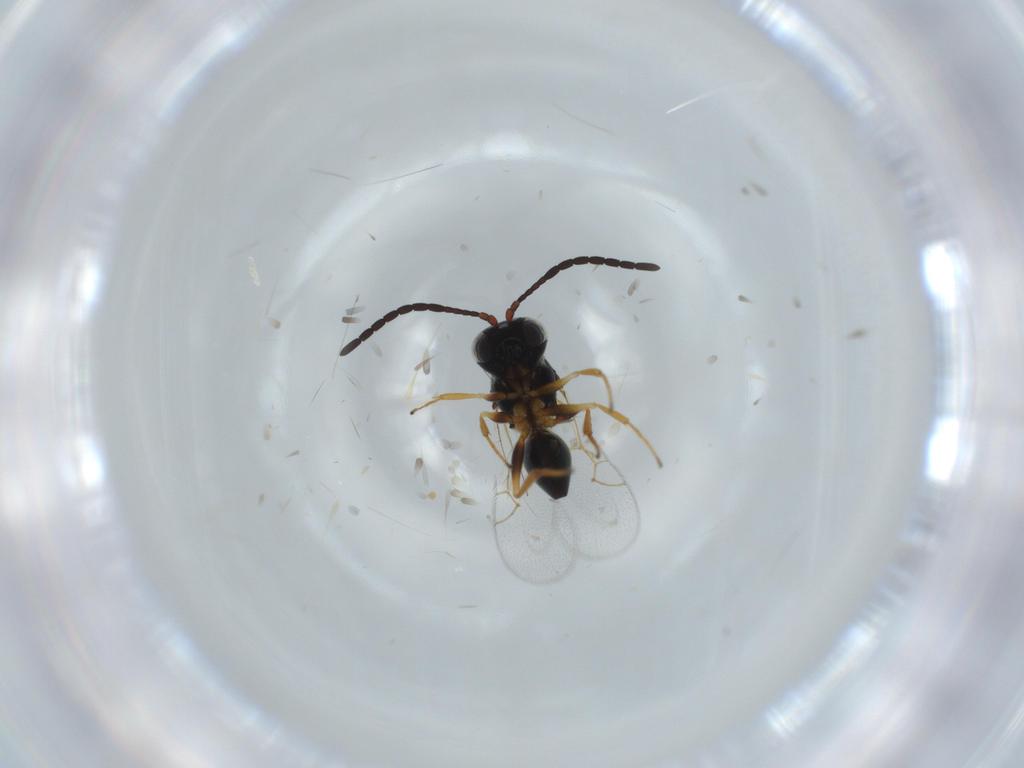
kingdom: Animalia
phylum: Arthropoda
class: Insecta
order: Hymenoptera
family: Figitidae
